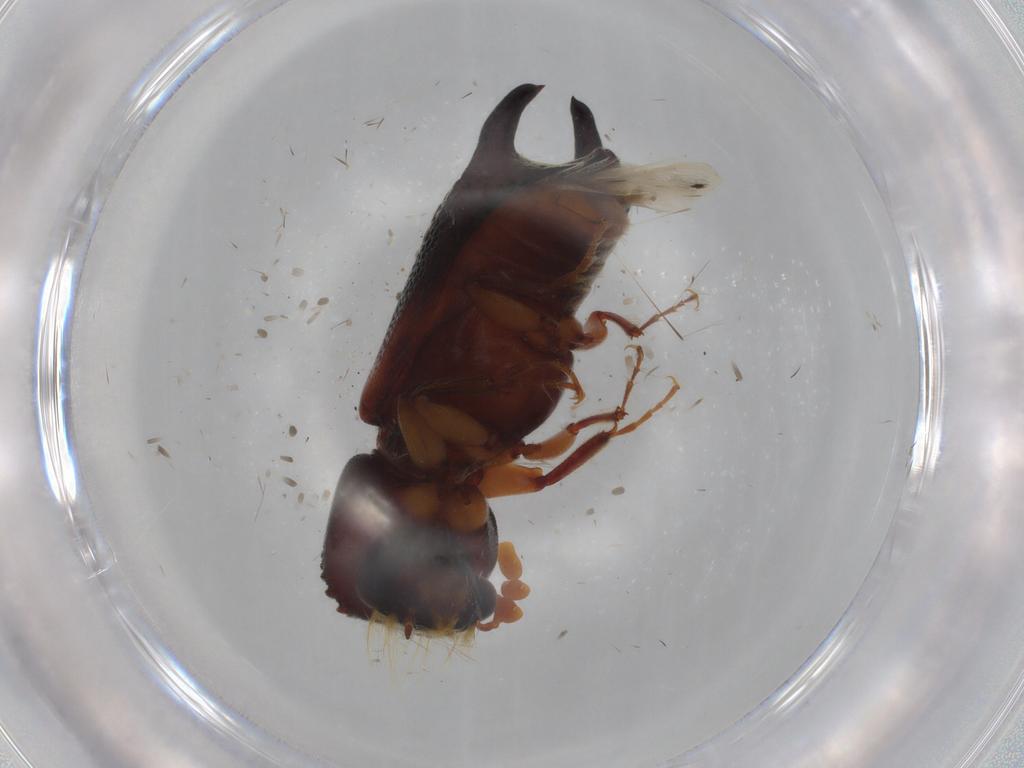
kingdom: Animalia
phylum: Arthropoda
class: Insecta
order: Coleoptera
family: Bostrichidae
